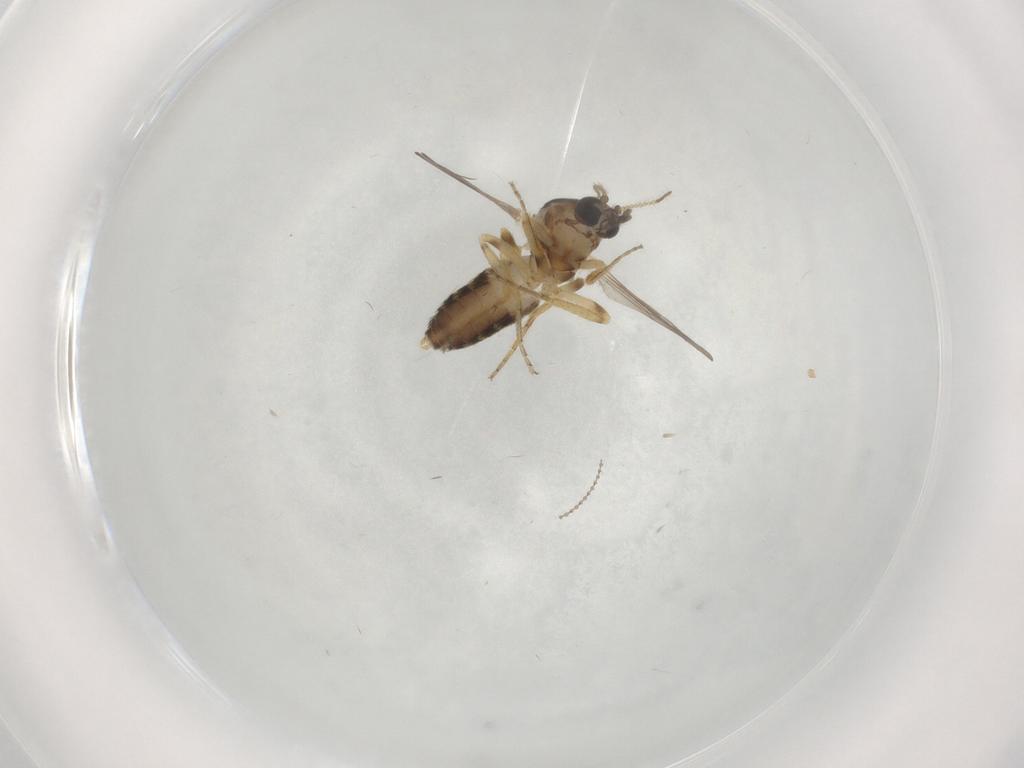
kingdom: Animalia
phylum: Arthropoda
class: Insecta
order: Diptera
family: Ceratopogonidae
